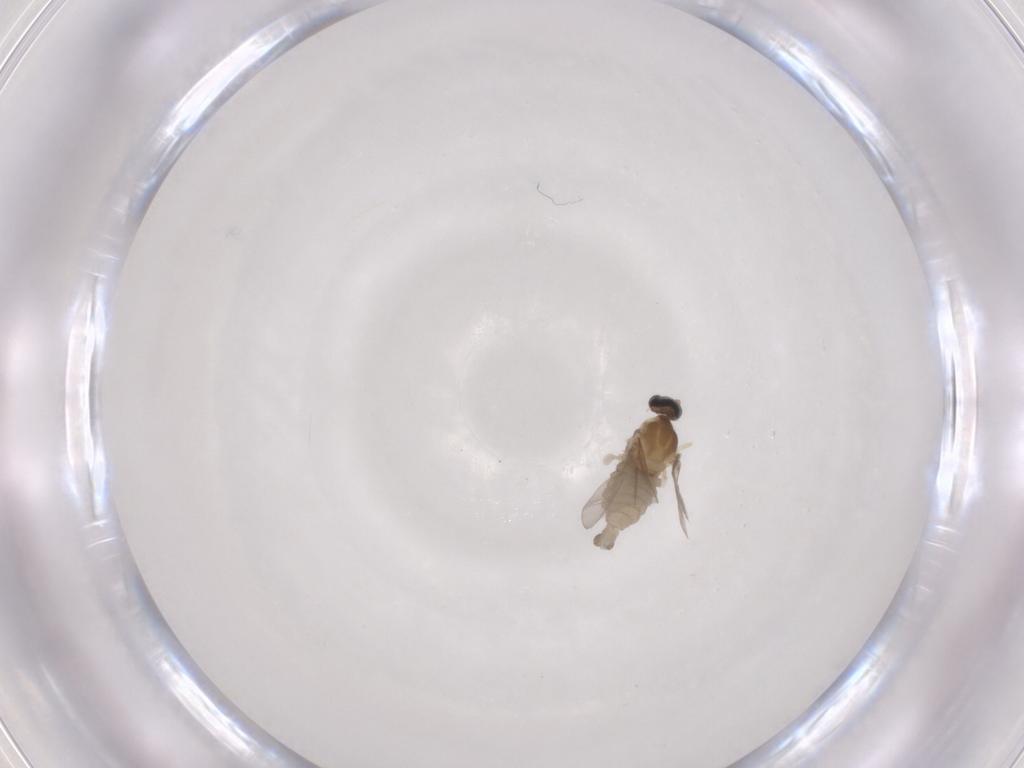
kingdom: Animalia
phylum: Arthropoda
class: Insecta
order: Diptera
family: Cecidomyiidae
